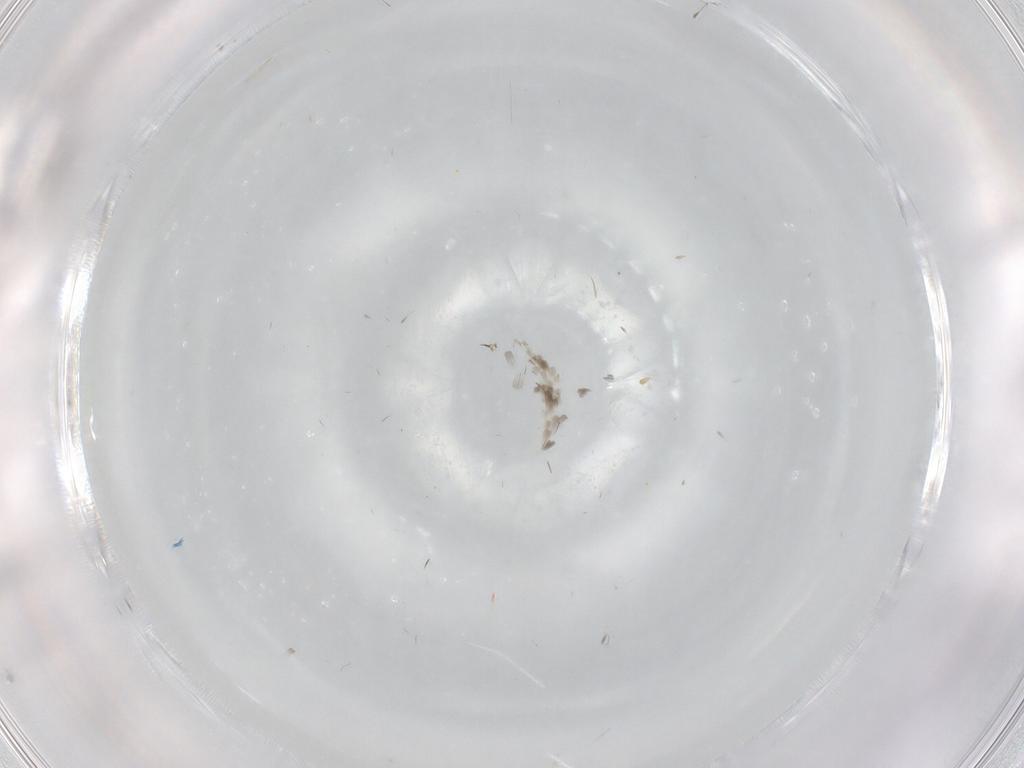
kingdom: Animalia
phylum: Arthropoda
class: Insecta
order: Diptera
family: Cecidomyiidae
